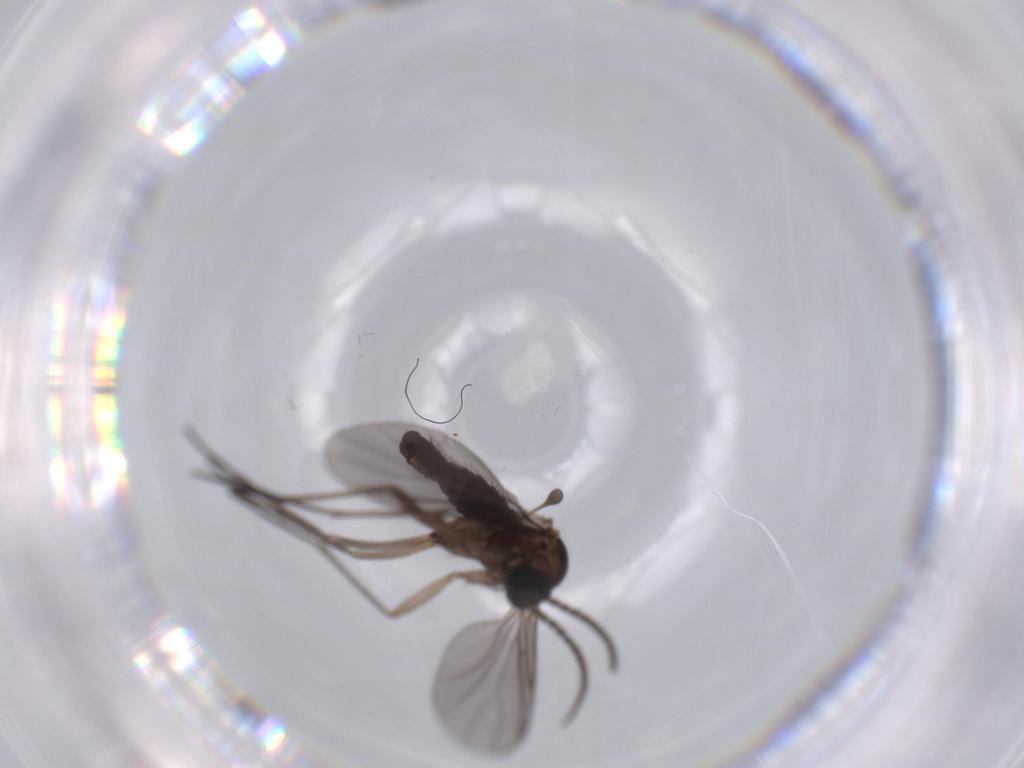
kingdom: Animalia
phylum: Arthropoda
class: Insecta
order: Diptera
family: Sciaridae
